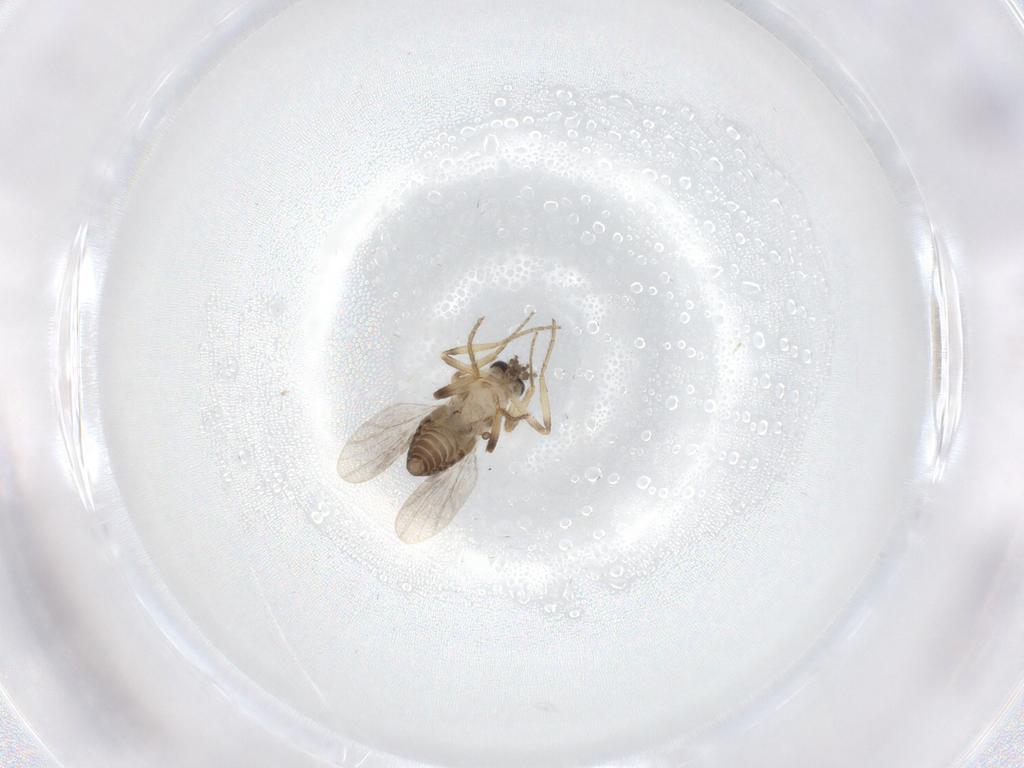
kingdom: Animalia
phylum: Arthropoda
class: Insecta
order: Diptera
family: Ceratopogonidae
